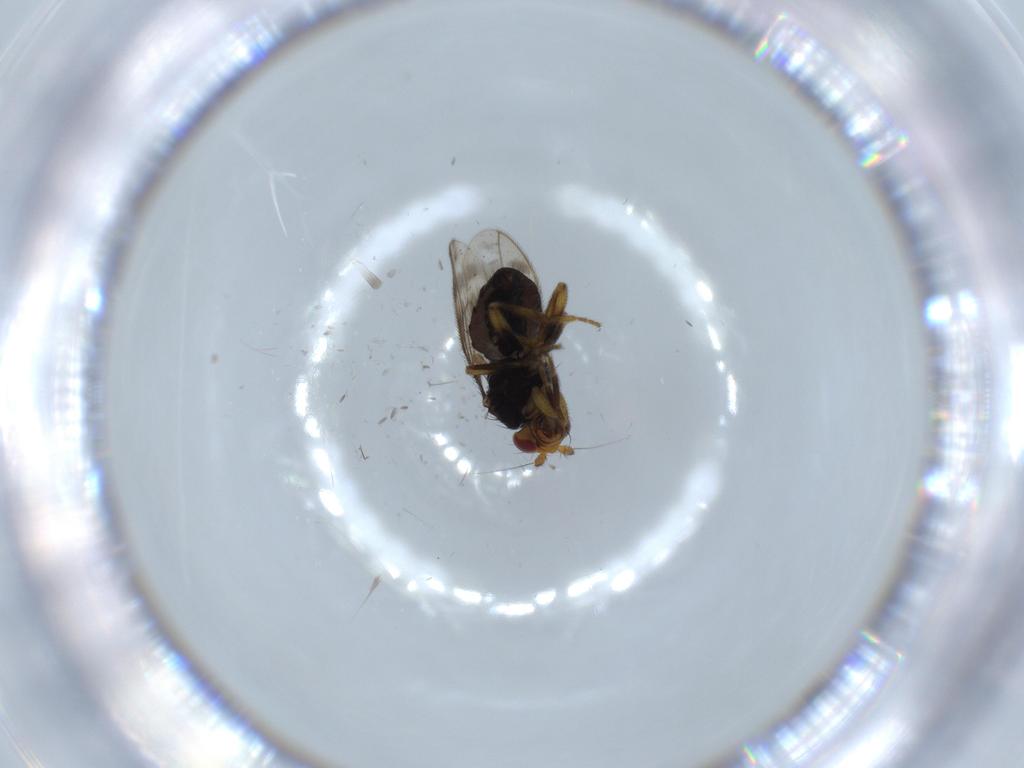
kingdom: Animalia
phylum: Arthropoda
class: Insecta
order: Diptera
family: Sphaeroceridae
